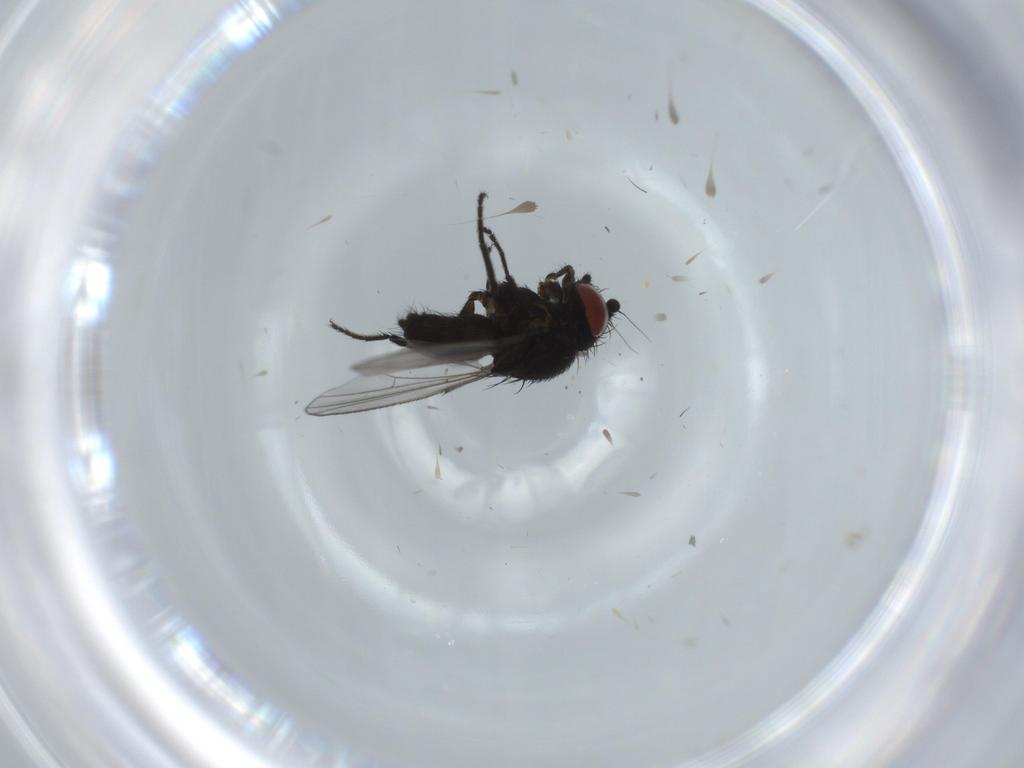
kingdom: Animalia
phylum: Arthropoda
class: Insecta
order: Diptera
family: Milichiidae
